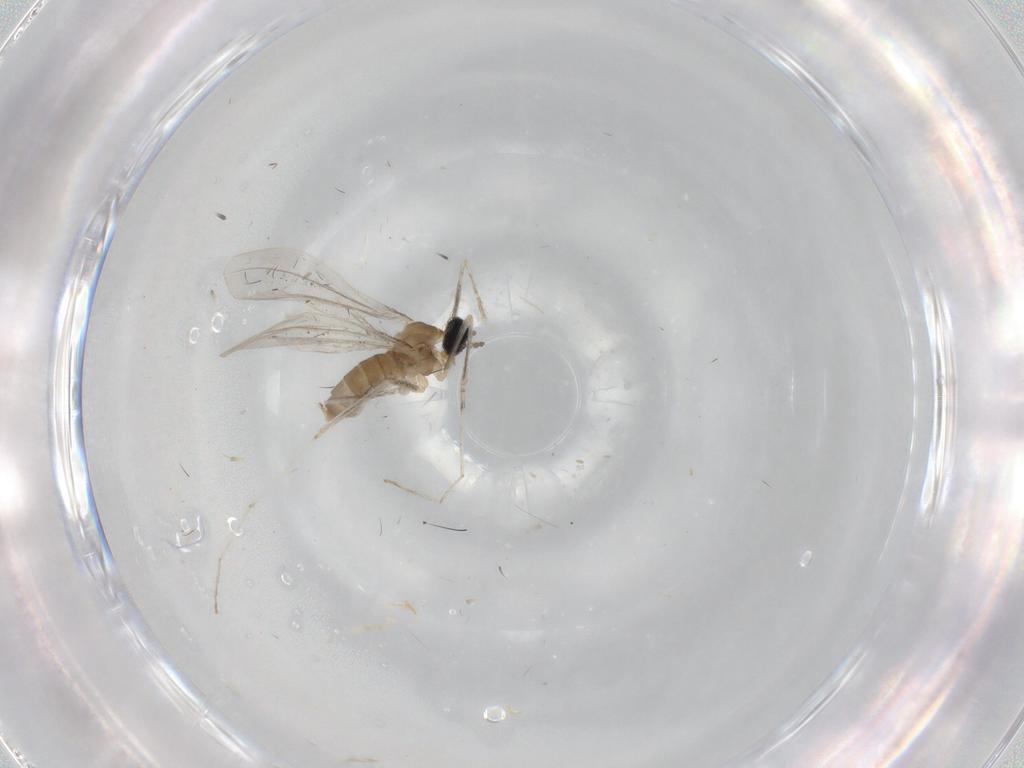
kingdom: Animalia
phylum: Arthropoda
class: Insecta
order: Diptera
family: Cecidomyiidae
